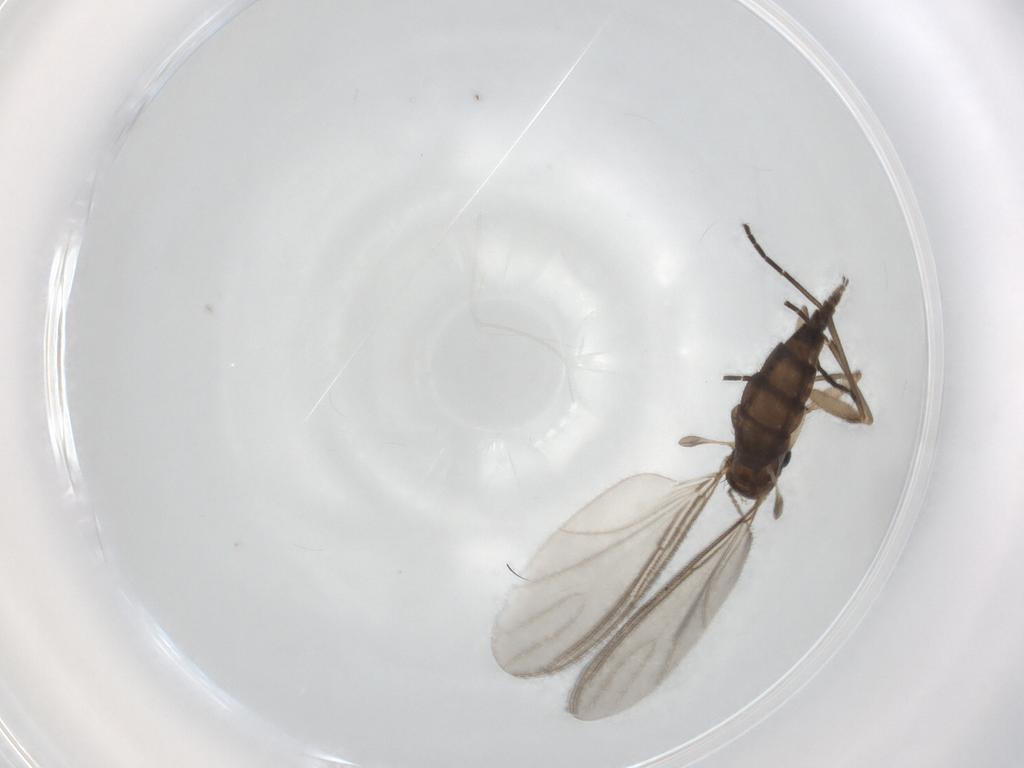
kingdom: Animalia
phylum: Arthropoda
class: Insecta
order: Diptera
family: Sciaridae
